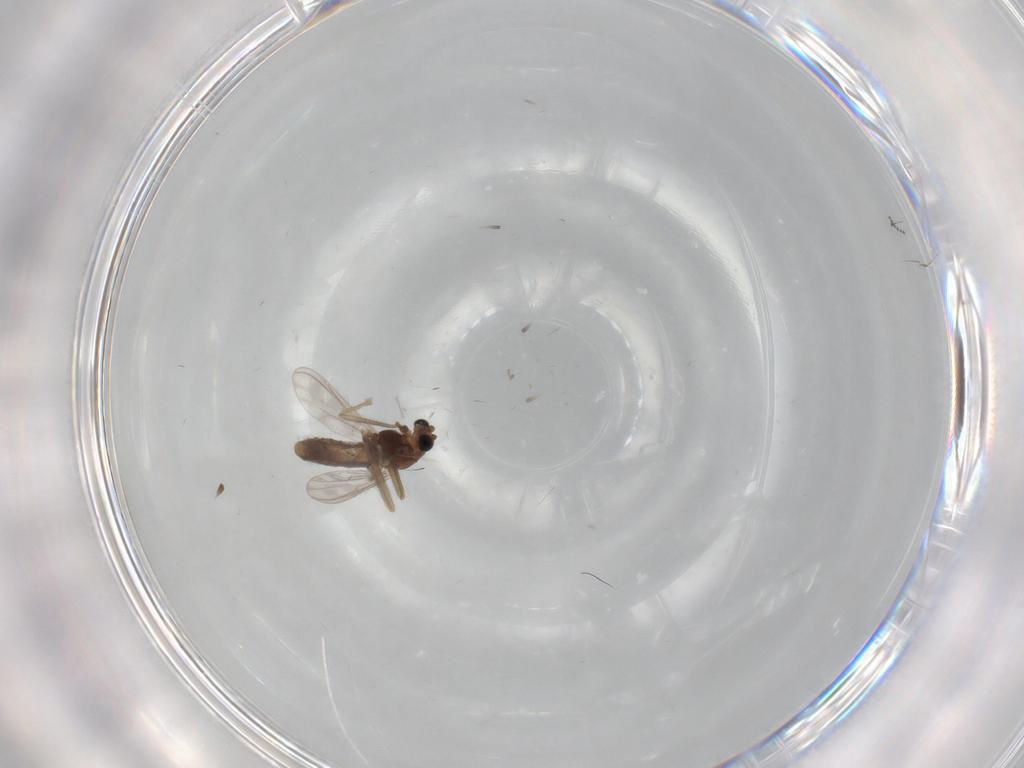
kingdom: Animalia
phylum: Arthropoda
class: Insecta
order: Diptera
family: Chironomidae
